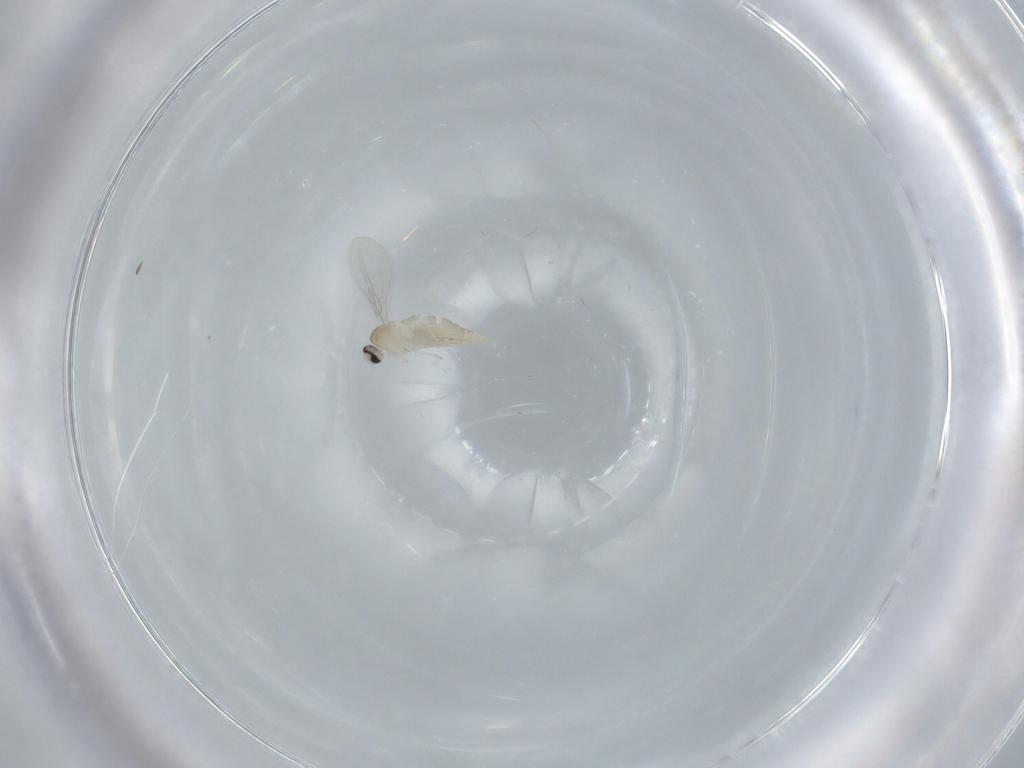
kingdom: Animalia
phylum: Arthropoda
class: Insecta
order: Diptera
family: Cecidomyiidae
